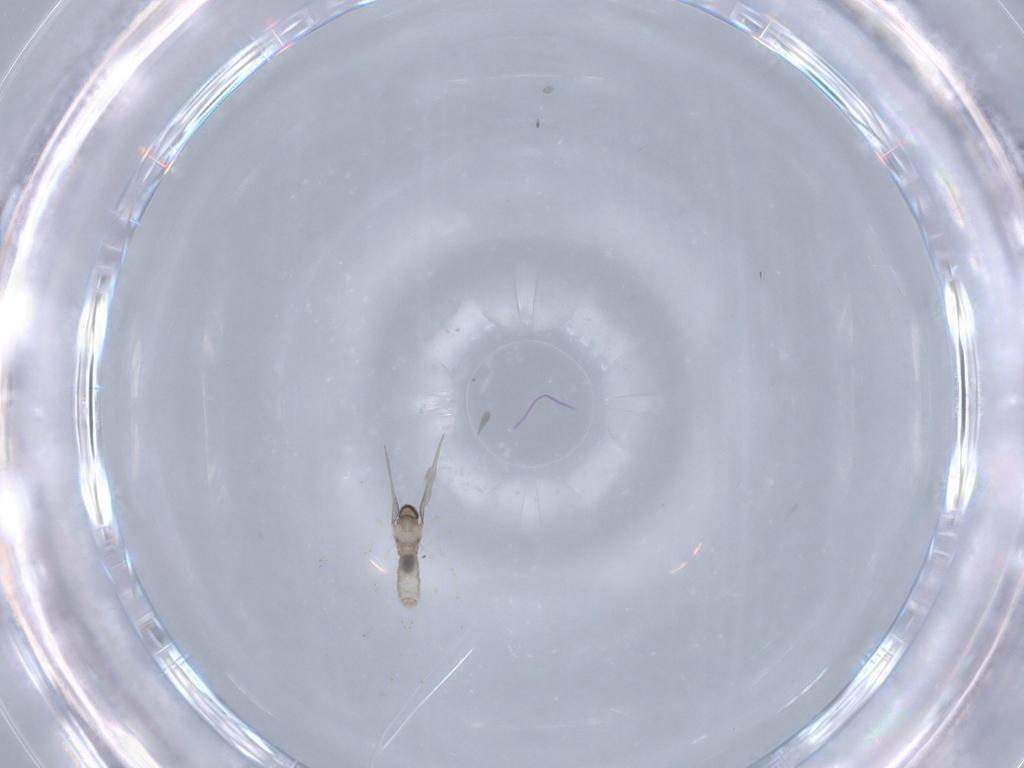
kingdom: Animalia
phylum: Arthropoda
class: Insecta
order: Diptera
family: Cecidomyiidae
